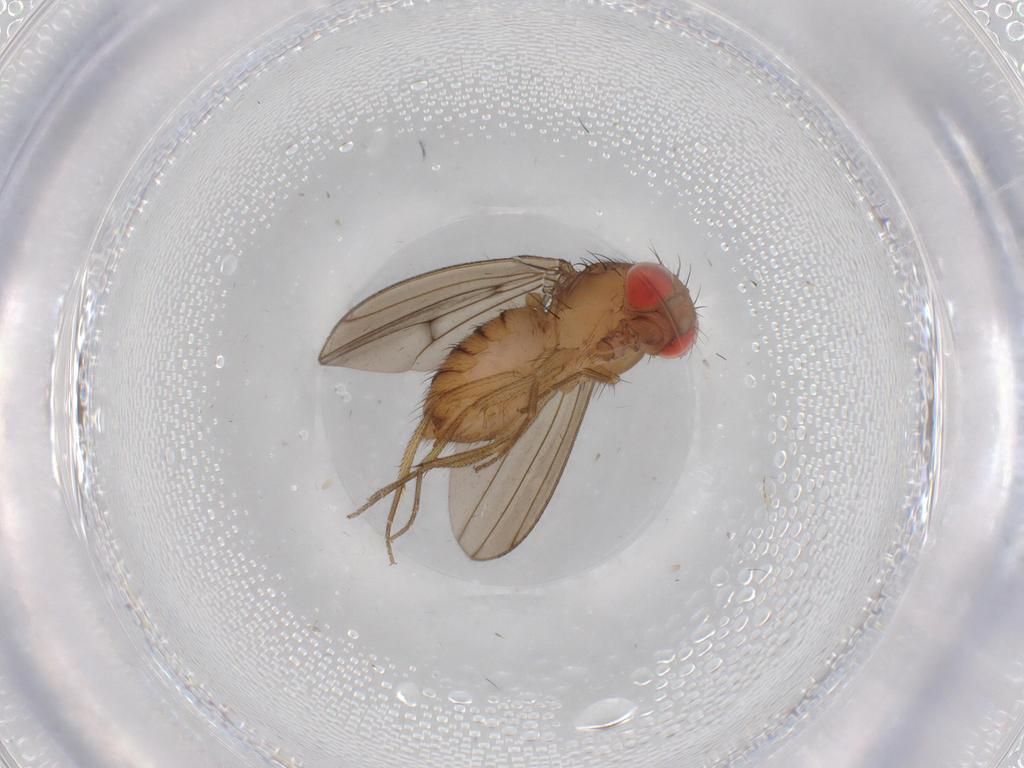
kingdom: Animalia
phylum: Arthropoda
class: Insecta
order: Diptera
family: Drosophilidae
